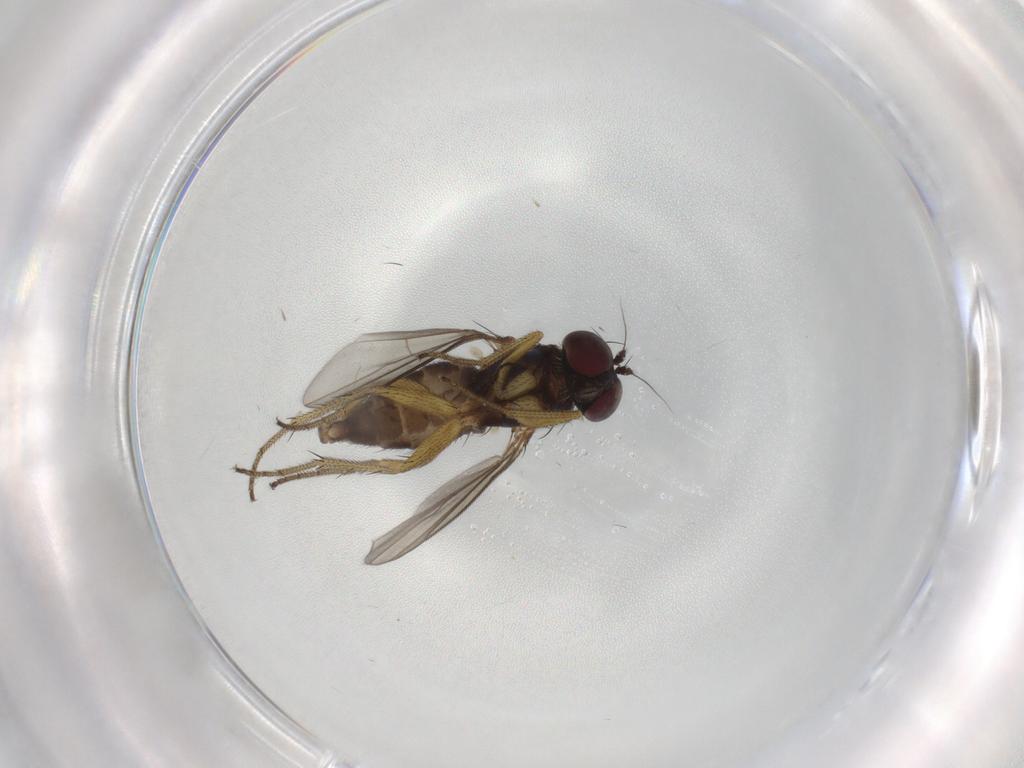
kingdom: Animalia
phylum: Arthropoda
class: Insecta
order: Diptera
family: Dolichopodidae
